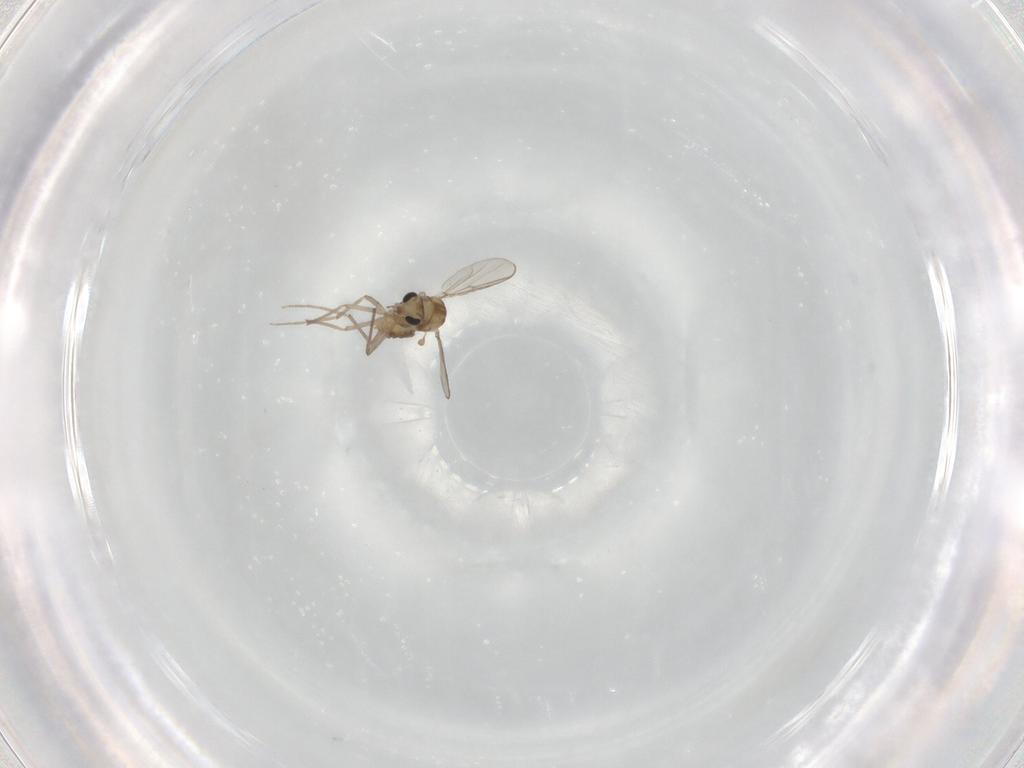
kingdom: Animalia
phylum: Arthropoda
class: Insecta
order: Diptera
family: Chironomidae
